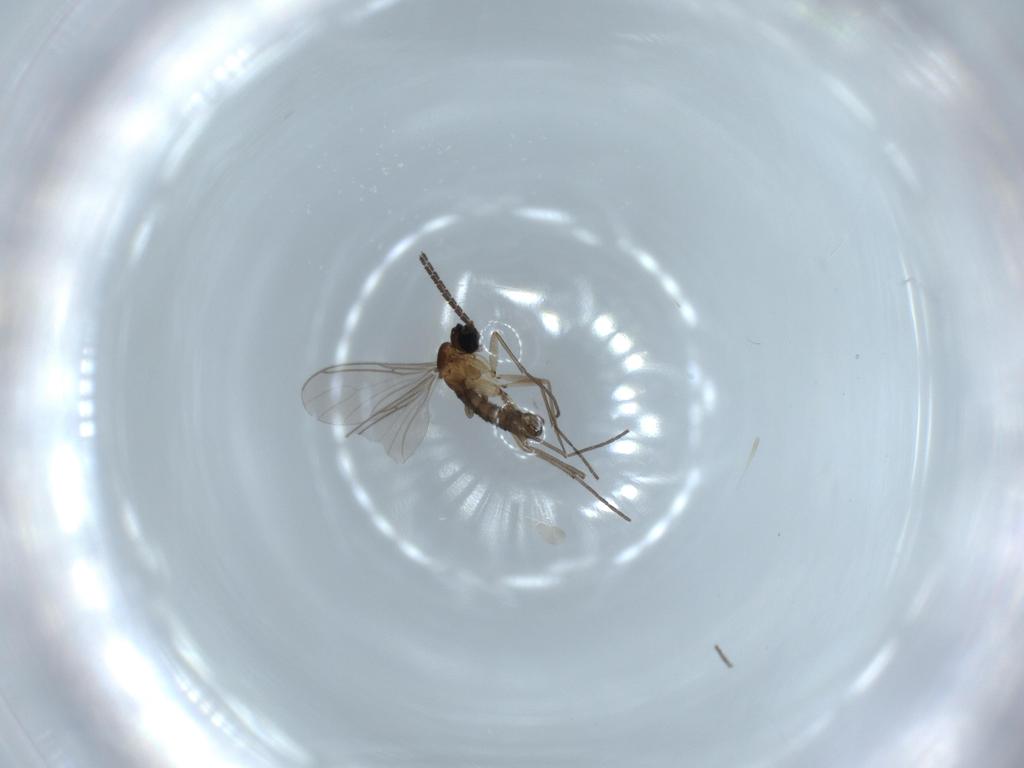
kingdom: Animalia
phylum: Arthropoda
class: Insecta
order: Diptera
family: Sciaridae
